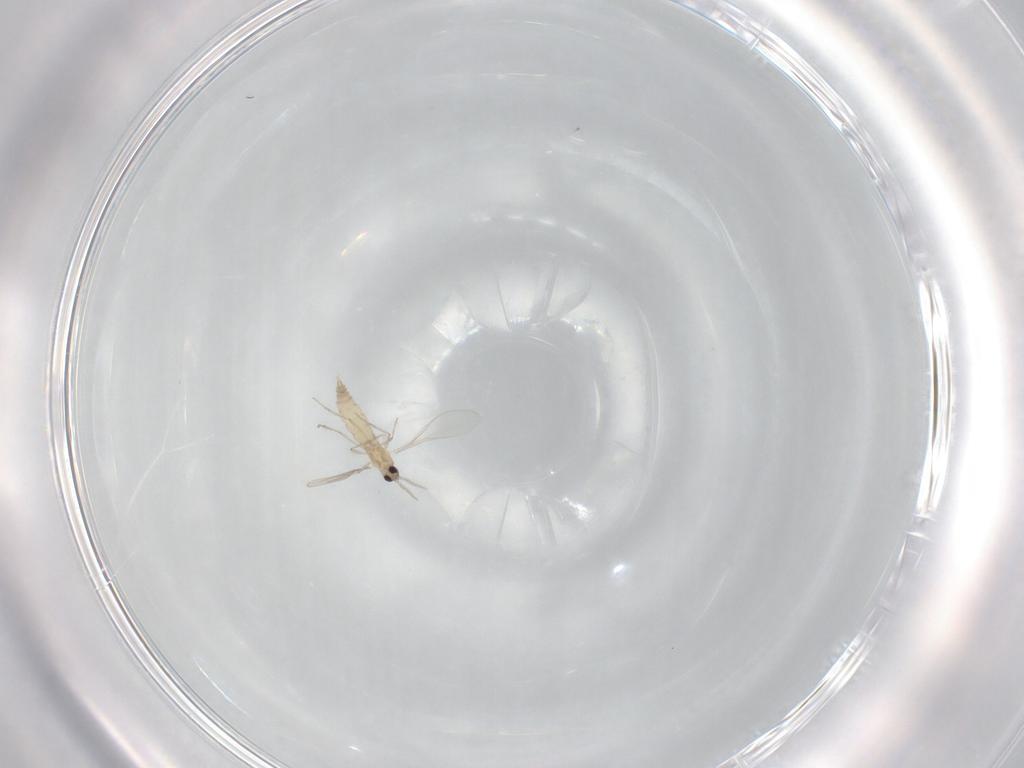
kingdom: Animalia
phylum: Arthropoda
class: Insecta
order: Diptera
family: Cecidomyiidae
